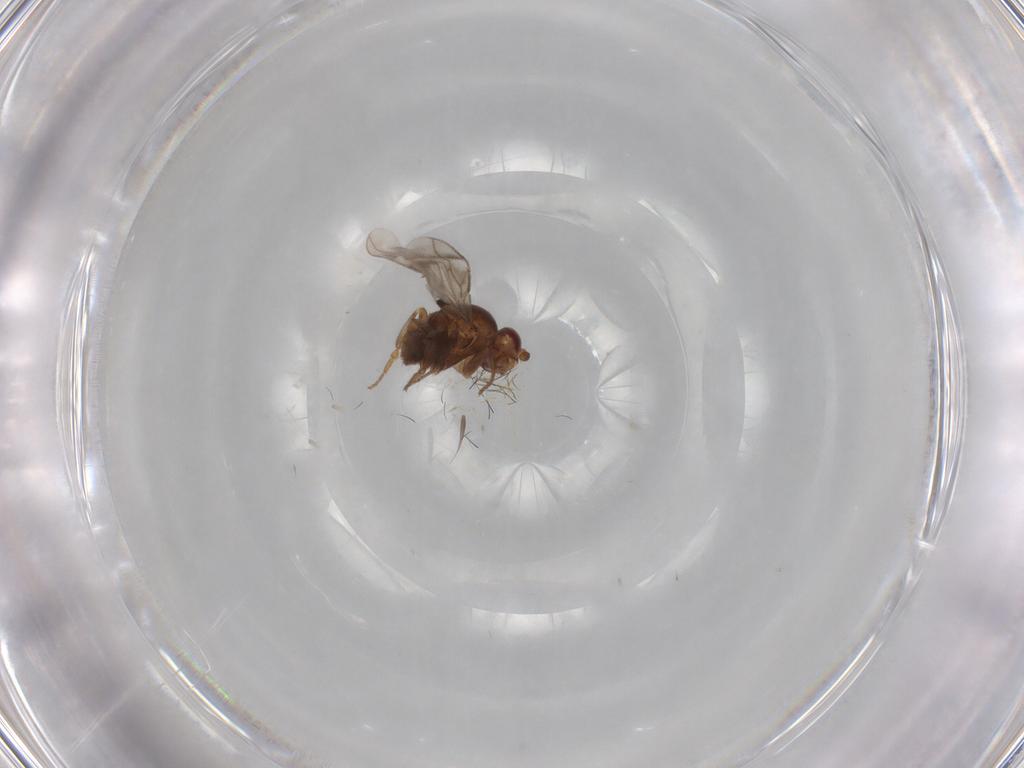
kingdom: Animalia
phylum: Arthropoda
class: Insecta
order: Diptera
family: Sarcophagidae
